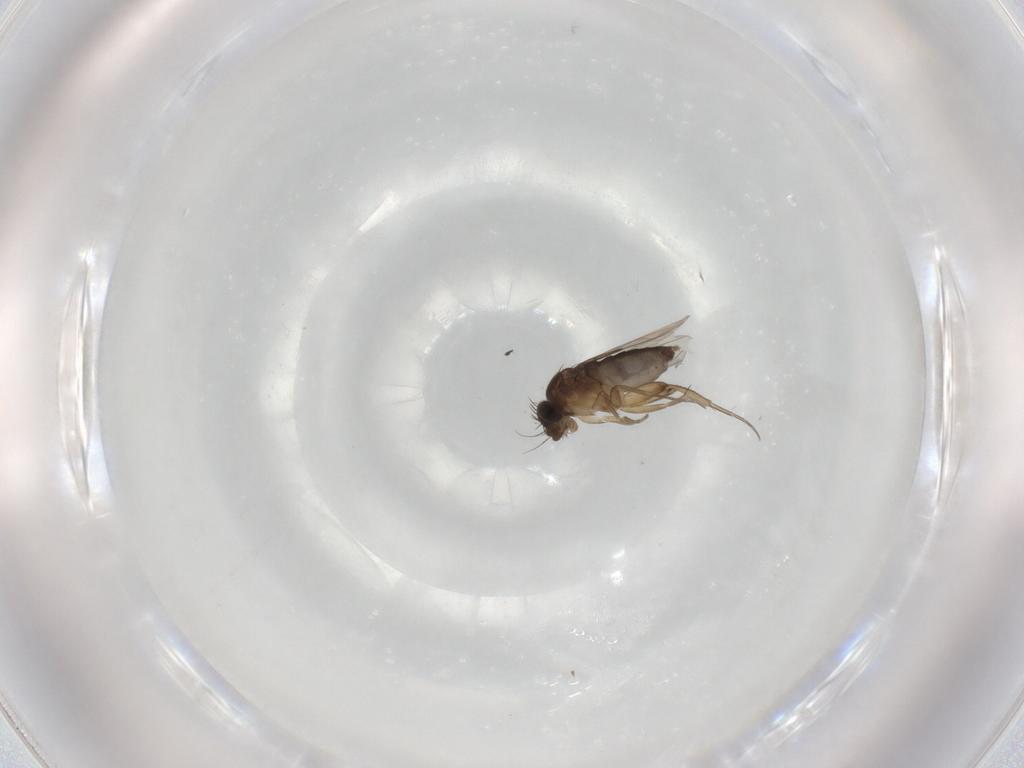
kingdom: Animalia
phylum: Arthropoda
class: Insecta
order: Diptera
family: Phoridae
